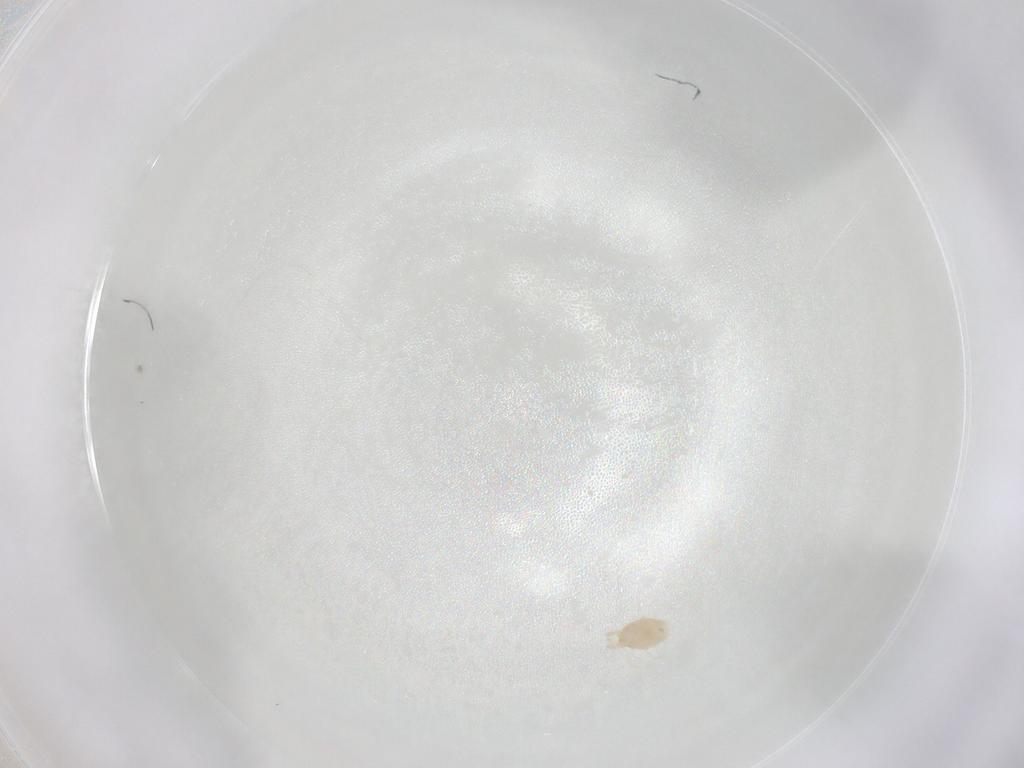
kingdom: Animalia
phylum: Arthropoda
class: Insecta
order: Hemiptera
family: Cicadellidae
